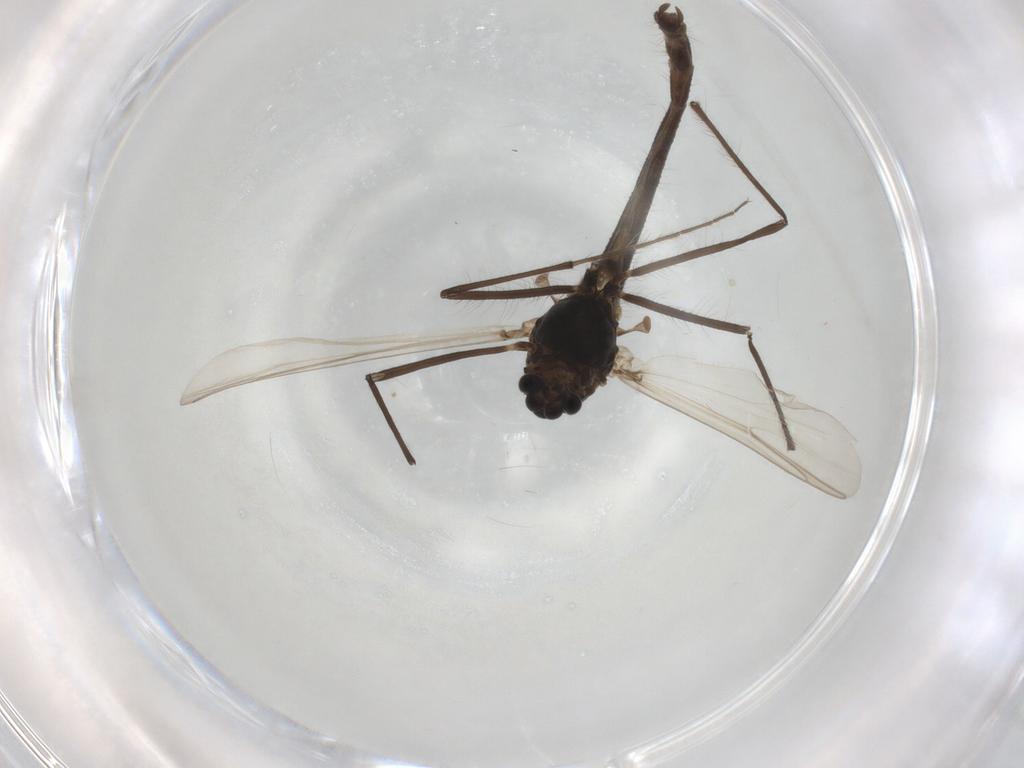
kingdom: Animalia
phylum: Arthropoda
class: Insecta
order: Diptera
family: Chironomidae
